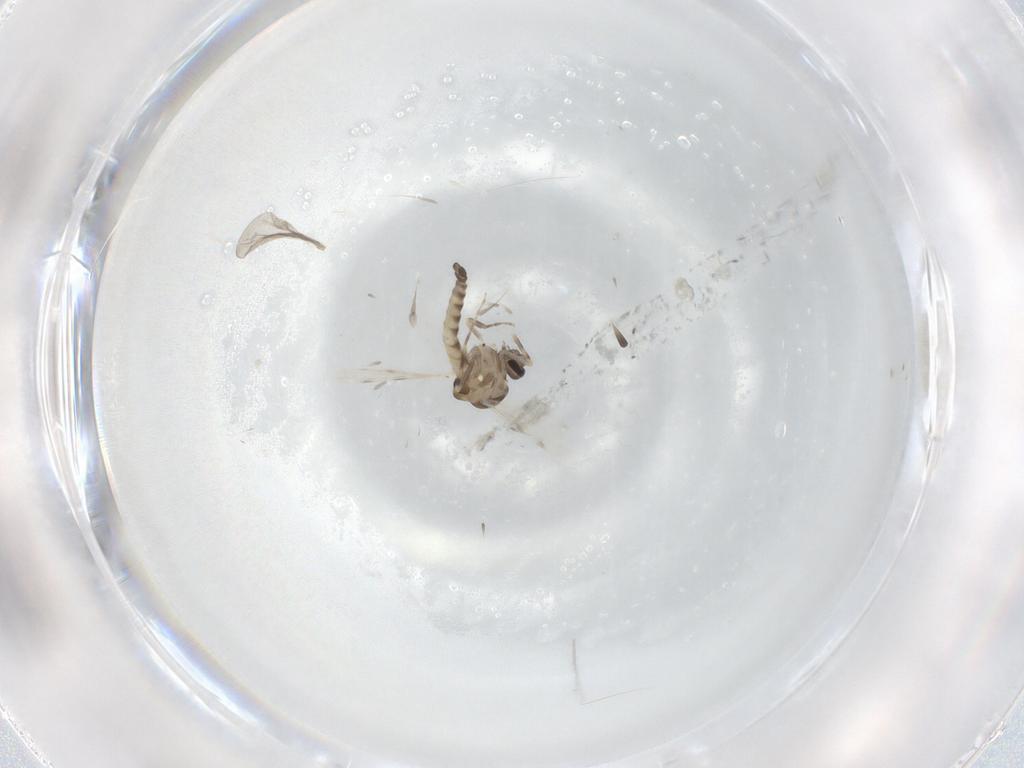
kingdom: Animalia
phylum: Arthropoda
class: Insecta
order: Diptera
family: Ceratopogonidae
